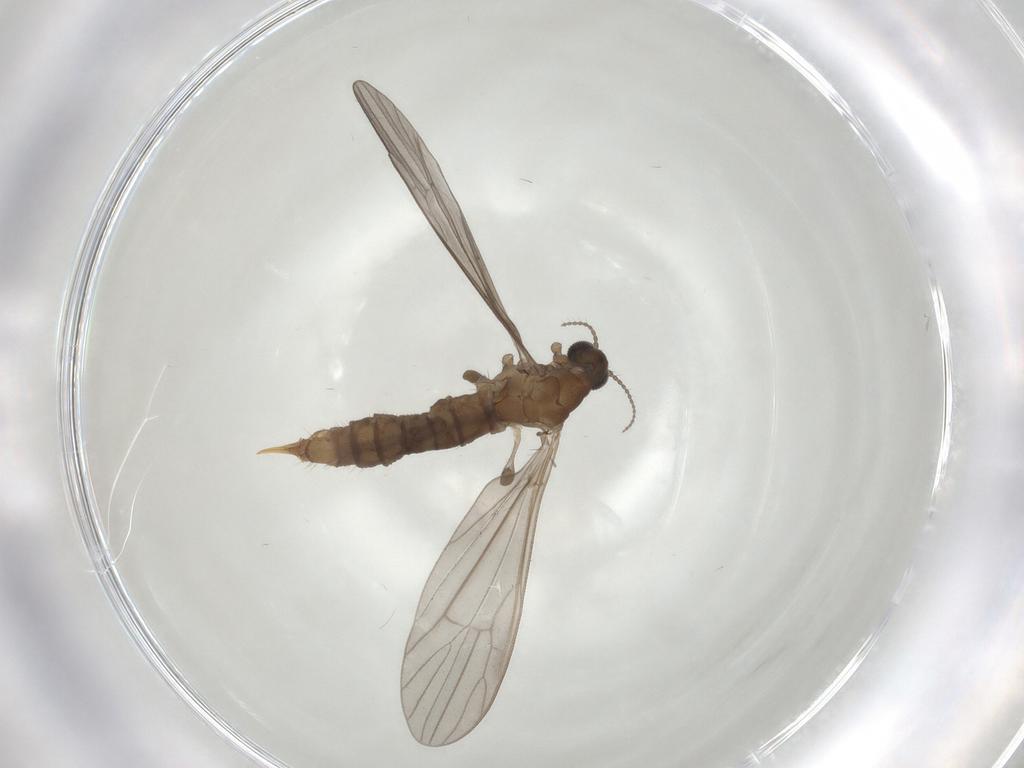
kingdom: Animalia
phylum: Arthropoda
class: Insecta
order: Diptera
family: Limoniidae
